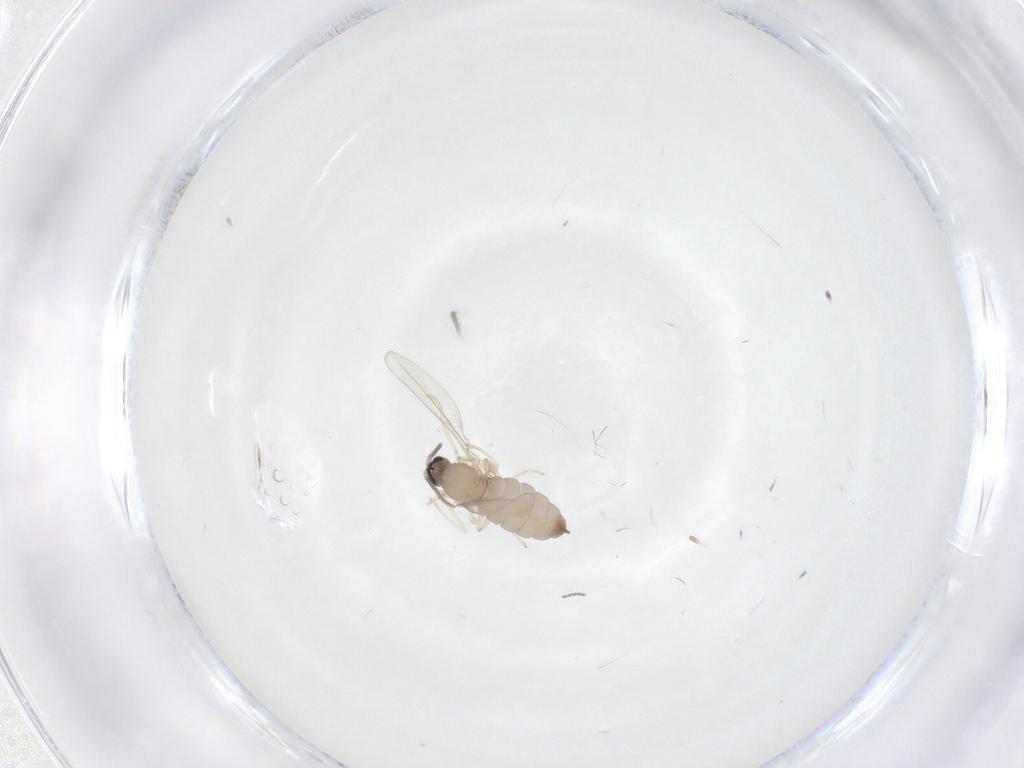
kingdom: Animalia
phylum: Arthropoda
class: Insecta
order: Diptera
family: Cecidomyiidae
